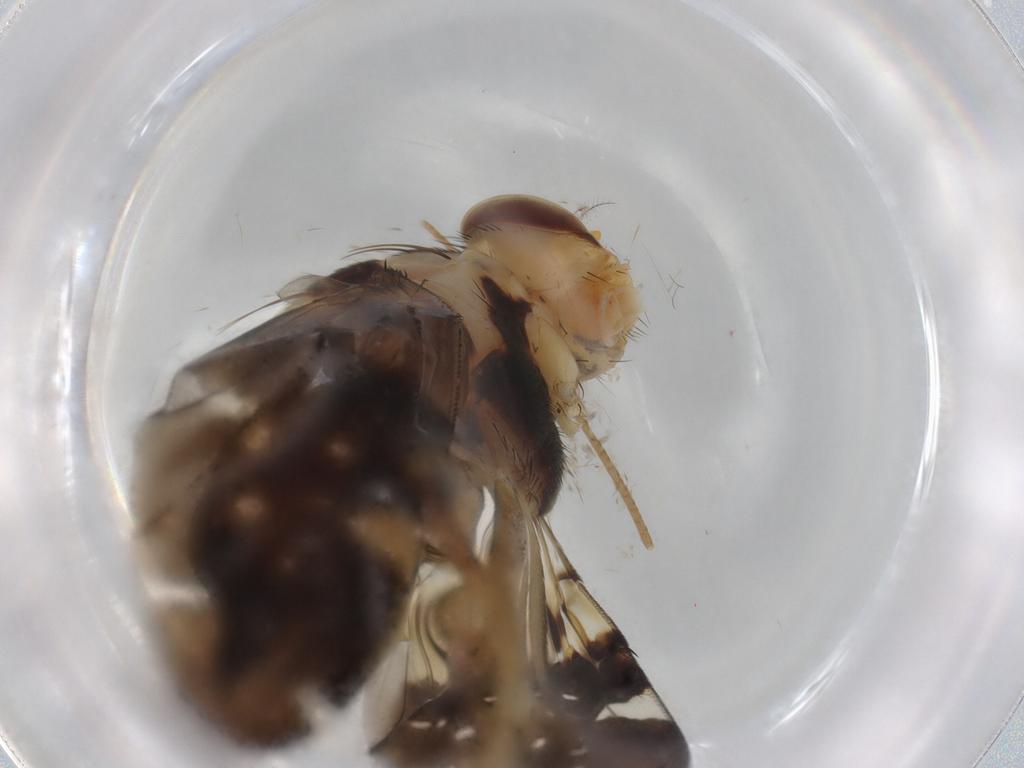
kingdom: Animalia
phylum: Arthropoda
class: Insecta
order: Diptera
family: Tephritidae
